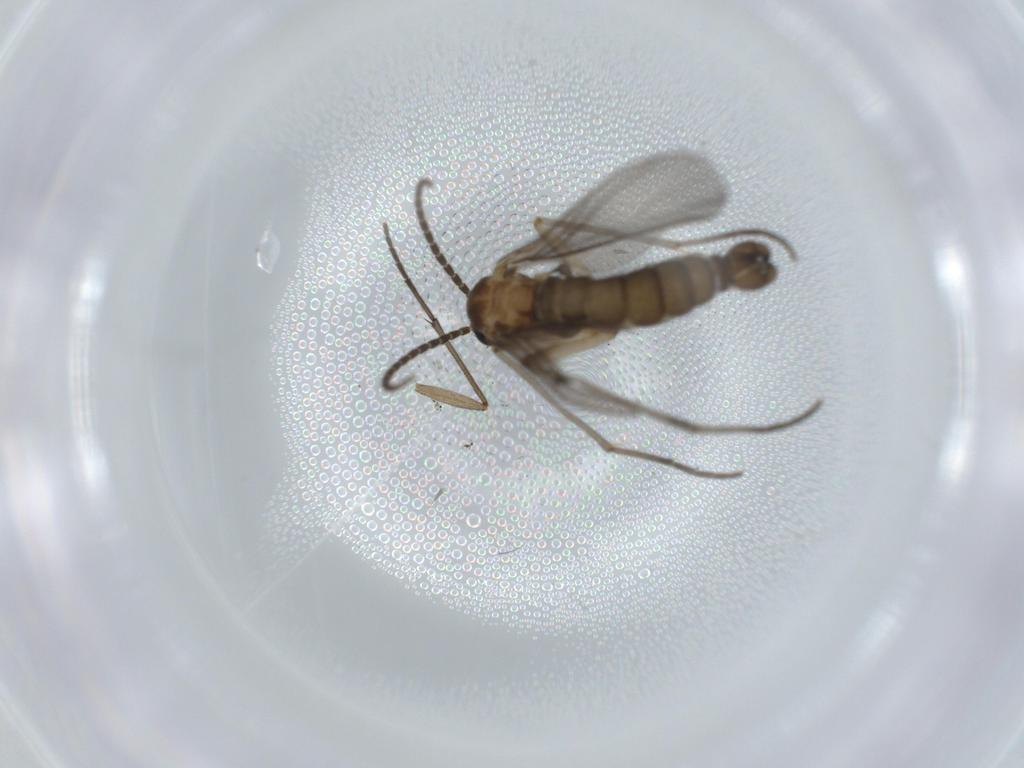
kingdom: Animalia
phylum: Arthropoda
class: Insecta
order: Diptera
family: Sciaridae
